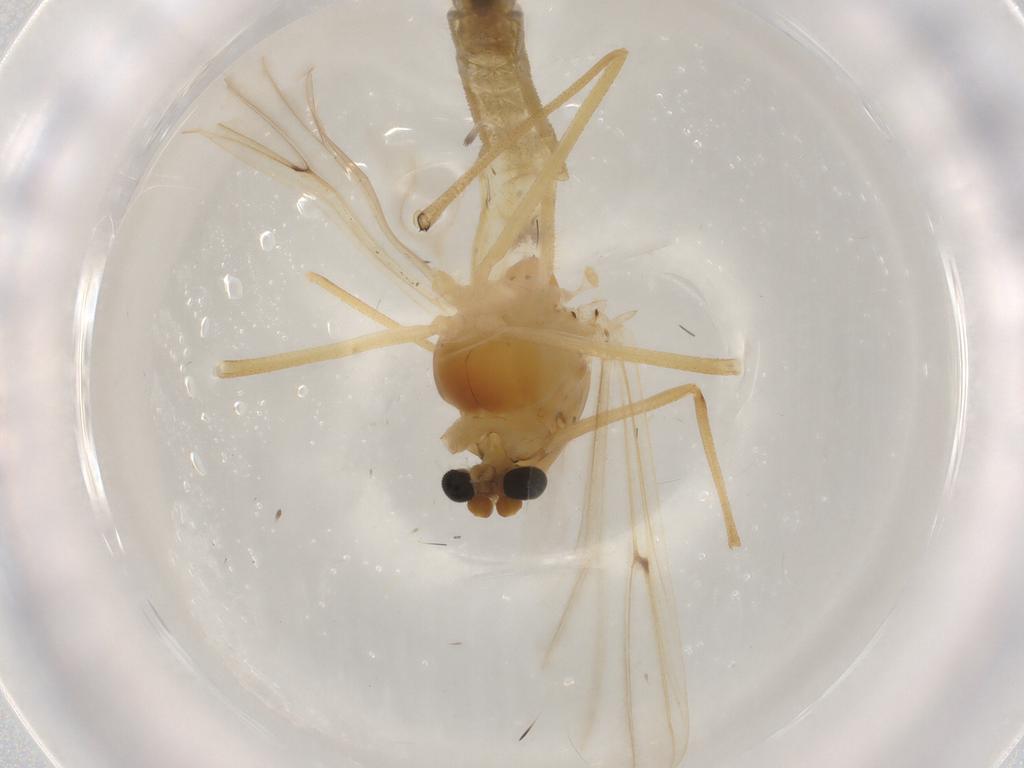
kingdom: Animalia
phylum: Arthropoda
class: Insecta
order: Diptera
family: Chironomidae
